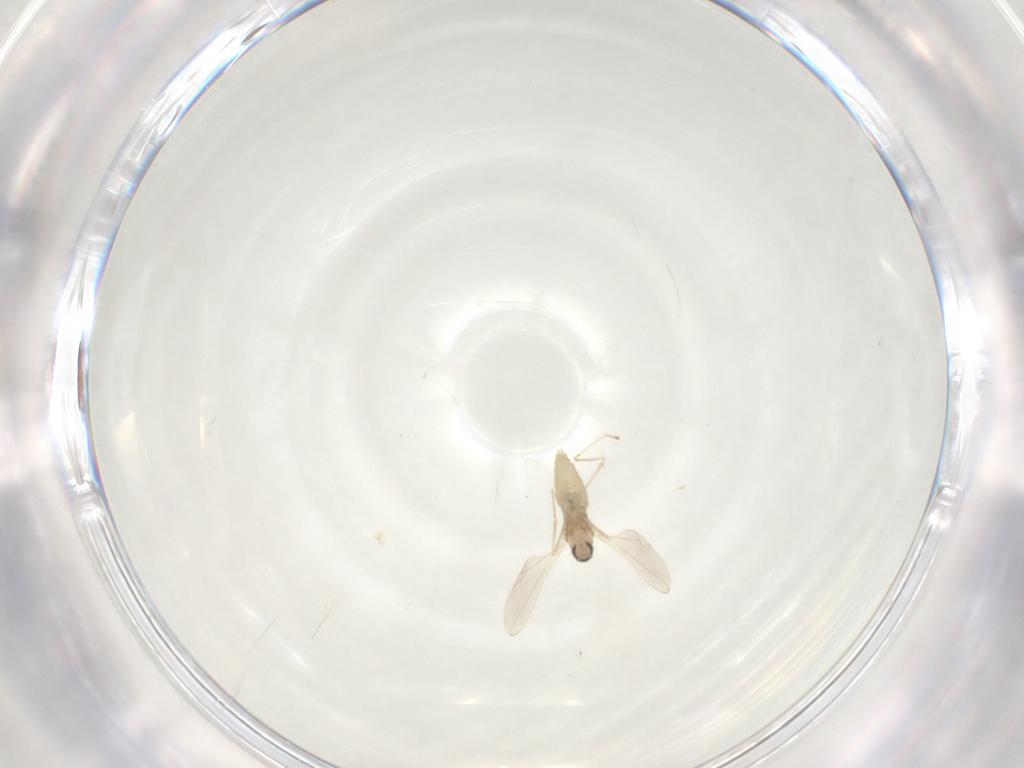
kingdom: Animalia
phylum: Arthropoda
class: Insecta
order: Diptera
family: Cecidomyiidae
